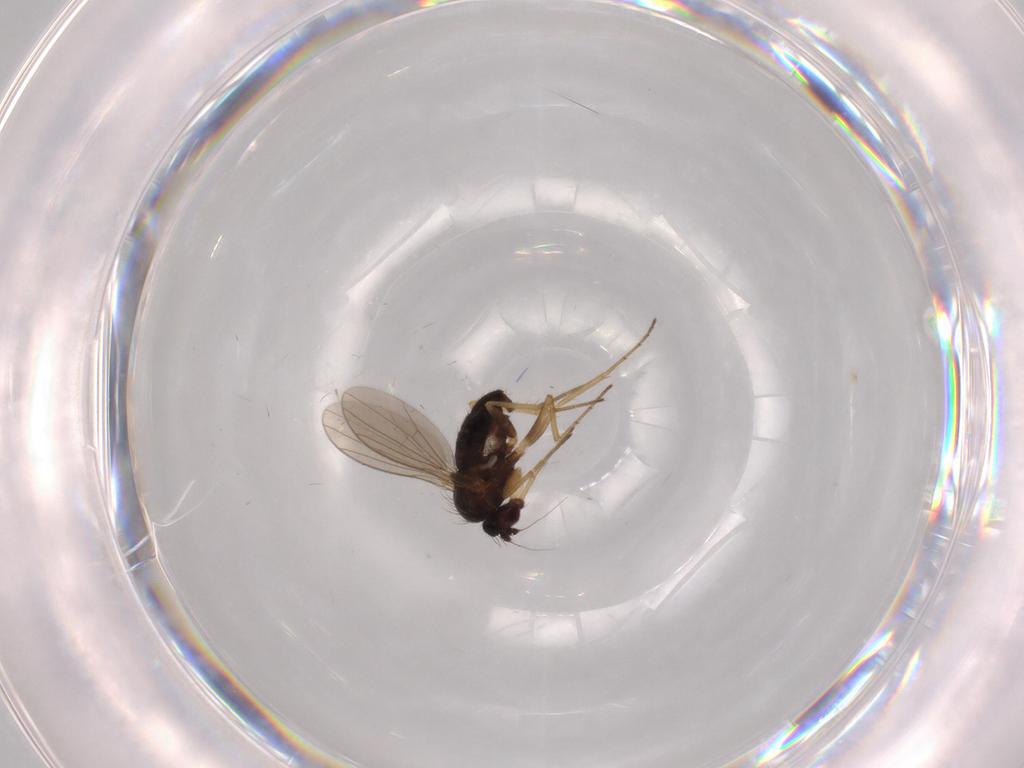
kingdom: Animalia
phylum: Arthropoda
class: Insecta
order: Diptera
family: Dolichopodidae
